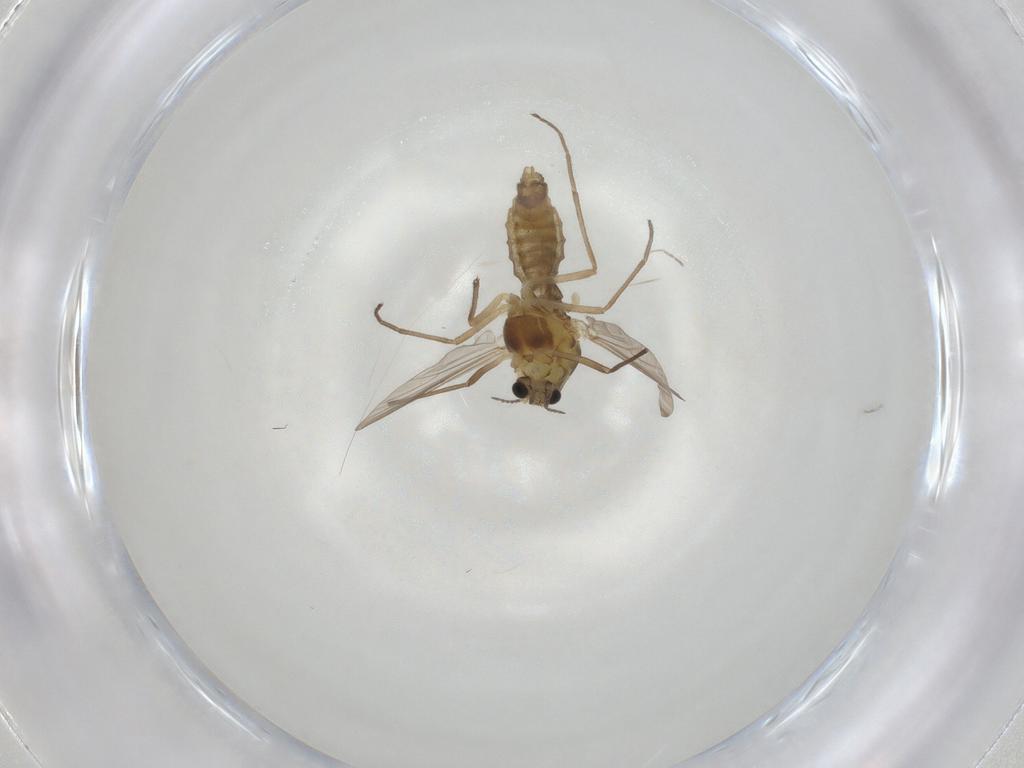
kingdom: Animalia
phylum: Arthropoda
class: Insecta
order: Diptera
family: Chironomidae
